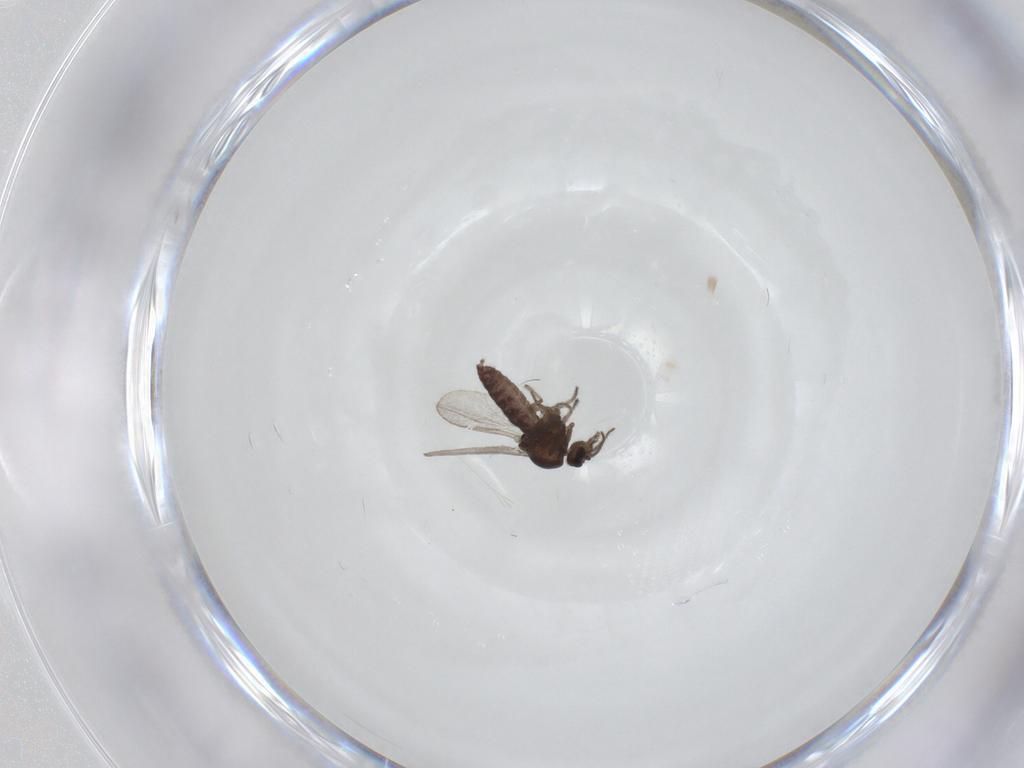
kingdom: Animalia
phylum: Arthropoda
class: Insecta
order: Diptera
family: Ceratopogonidae
